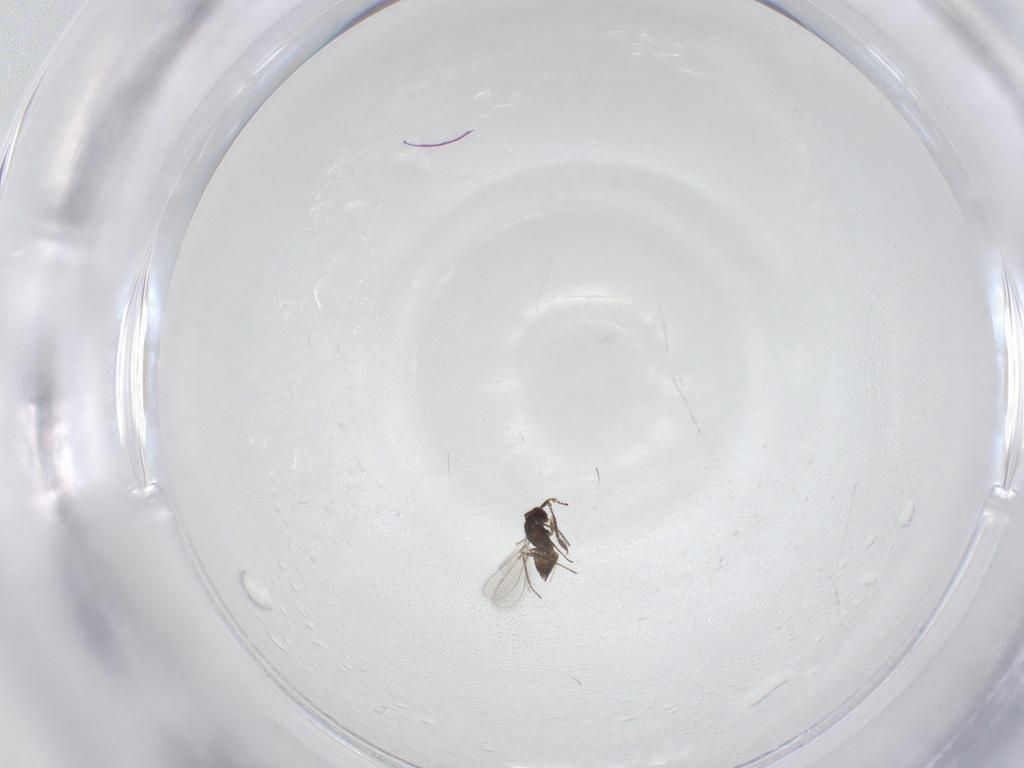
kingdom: Animalia
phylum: Arthropoda
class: Insecta
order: Hymenoptera
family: Mymaridae
